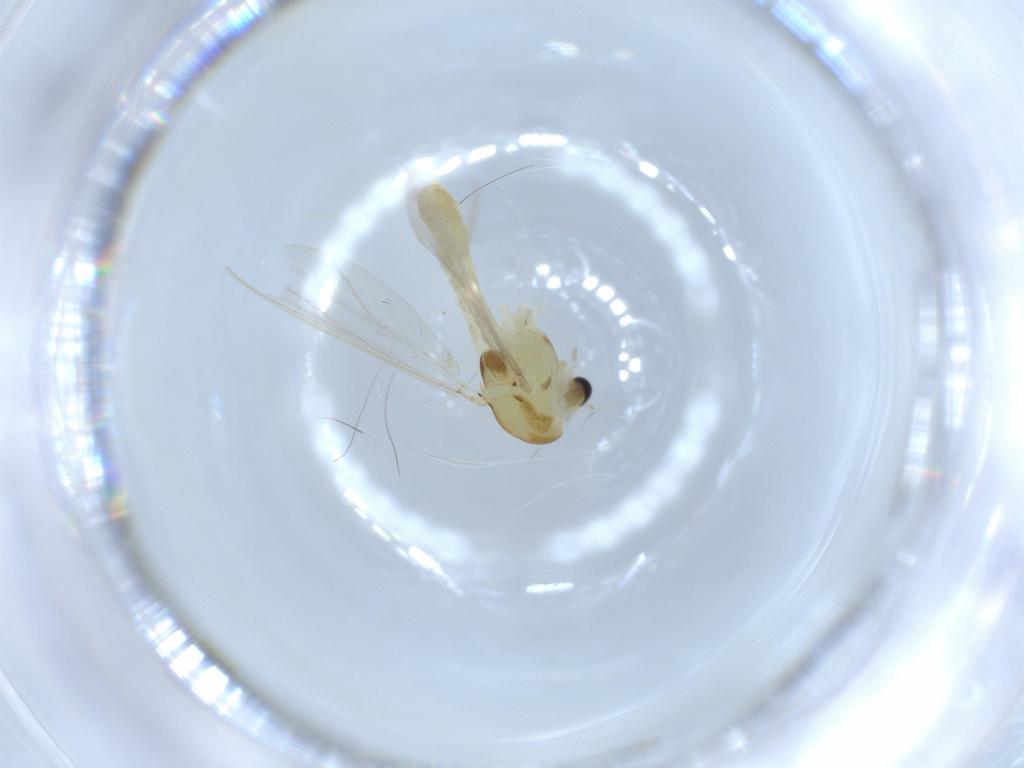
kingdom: Animalia
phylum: Arthropoda
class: Insecta
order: Diptera
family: Chironomidae
